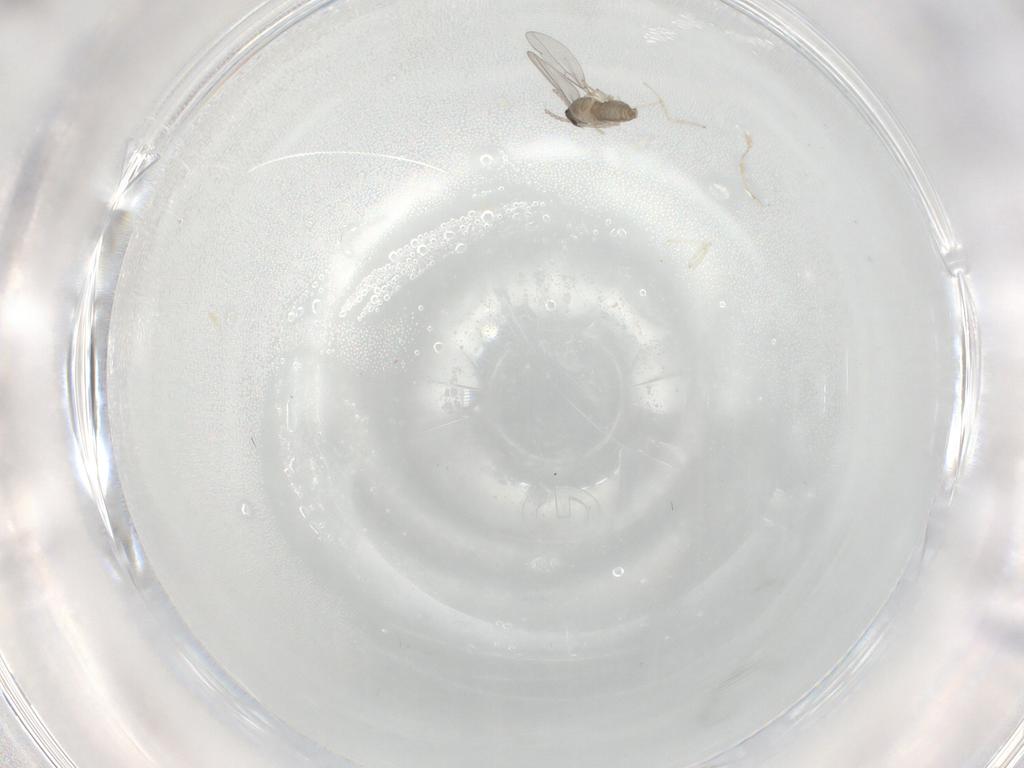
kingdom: Animalia
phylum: Arthropoda
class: Insecta
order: Diptera
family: Cecidomyiidae
